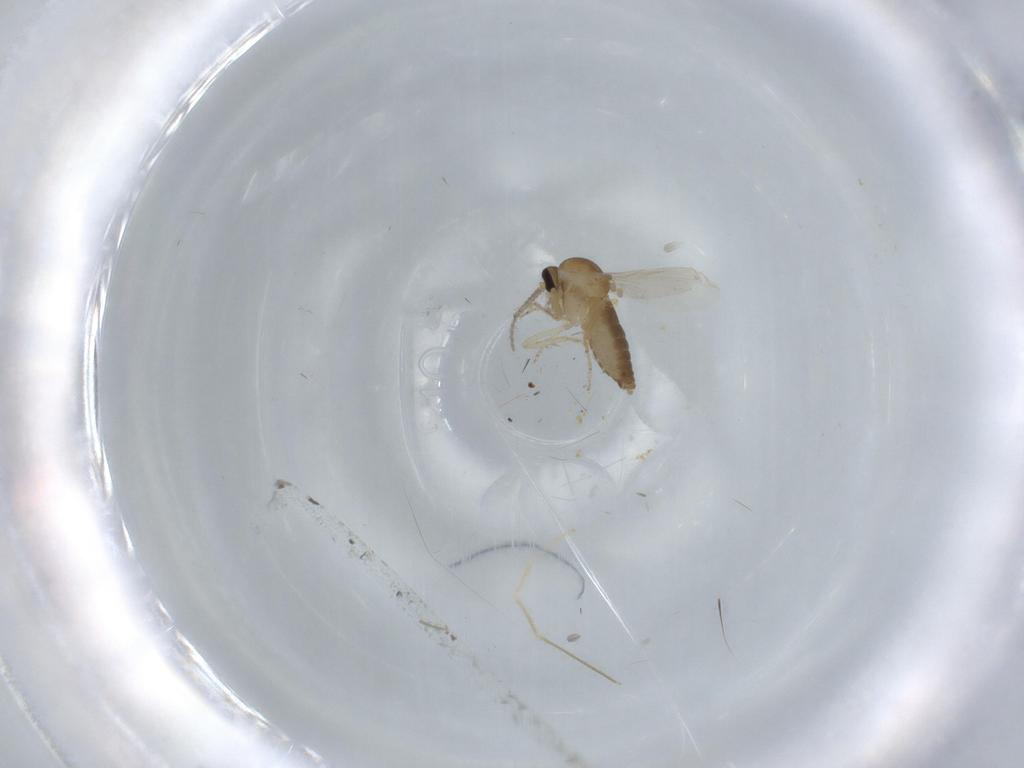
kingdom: Animalia
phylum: Arthropoda
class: Insecta
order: Diptera
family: Ceratopogonidae
